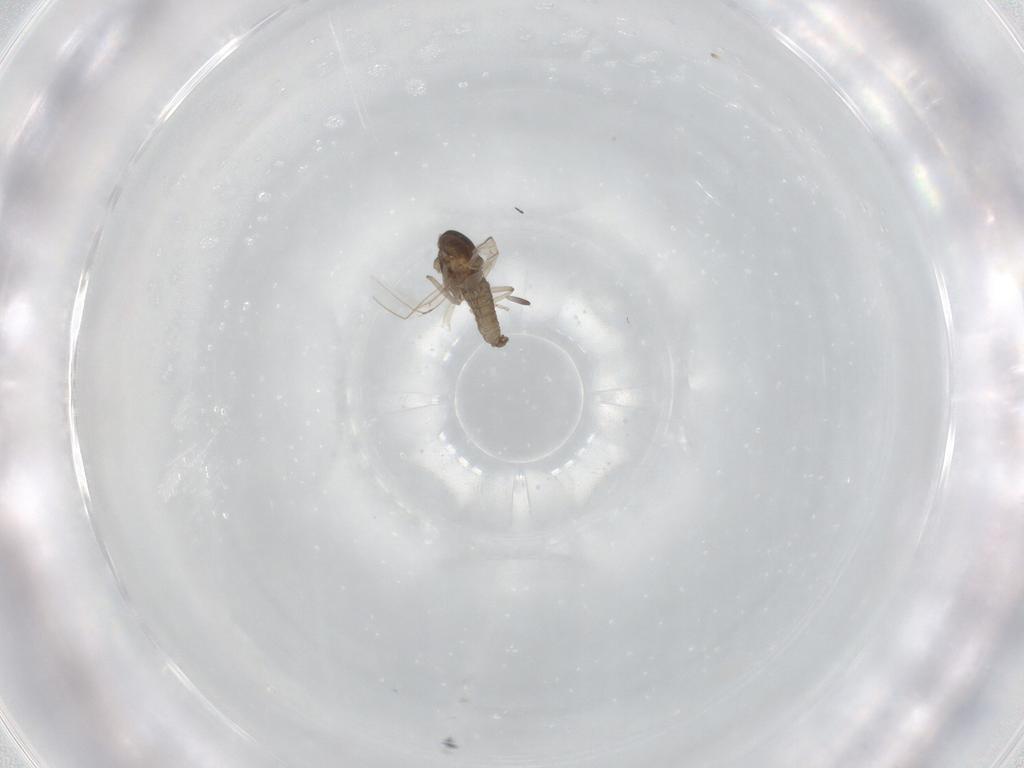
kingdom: Animalia
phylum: Arthropoda
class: Insecta
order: Diptera
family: Cecidomyiidae
